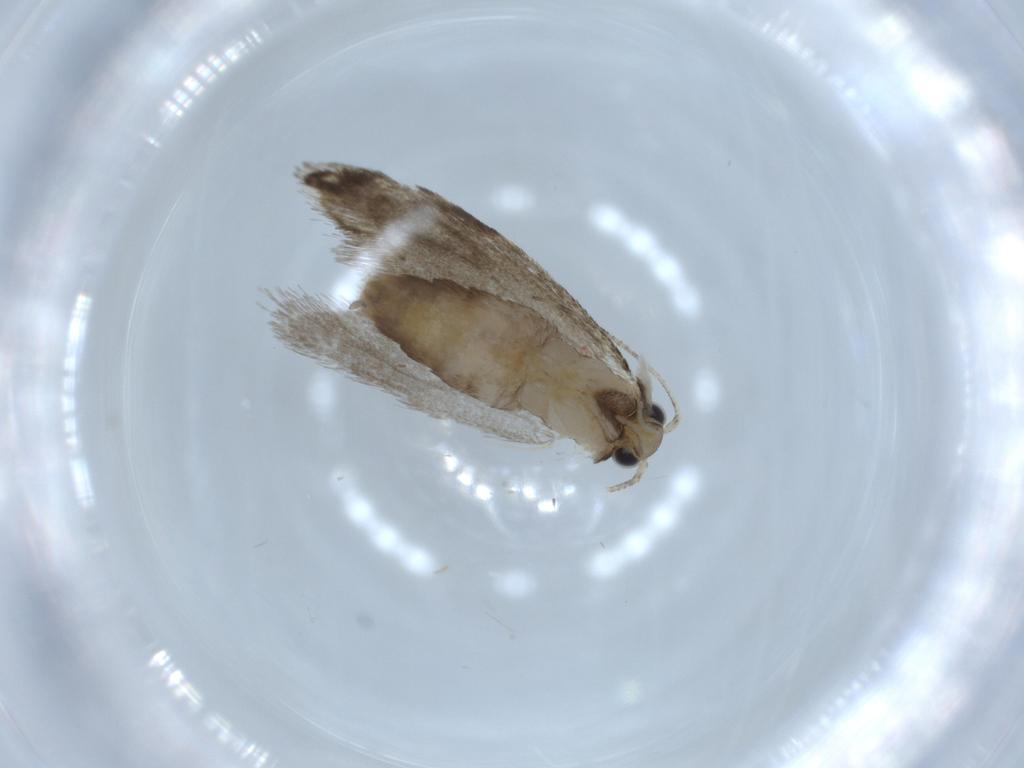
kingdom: Animalia
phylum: Arthropoda
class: Insecta
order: Lepidoptera
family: Tineidae
